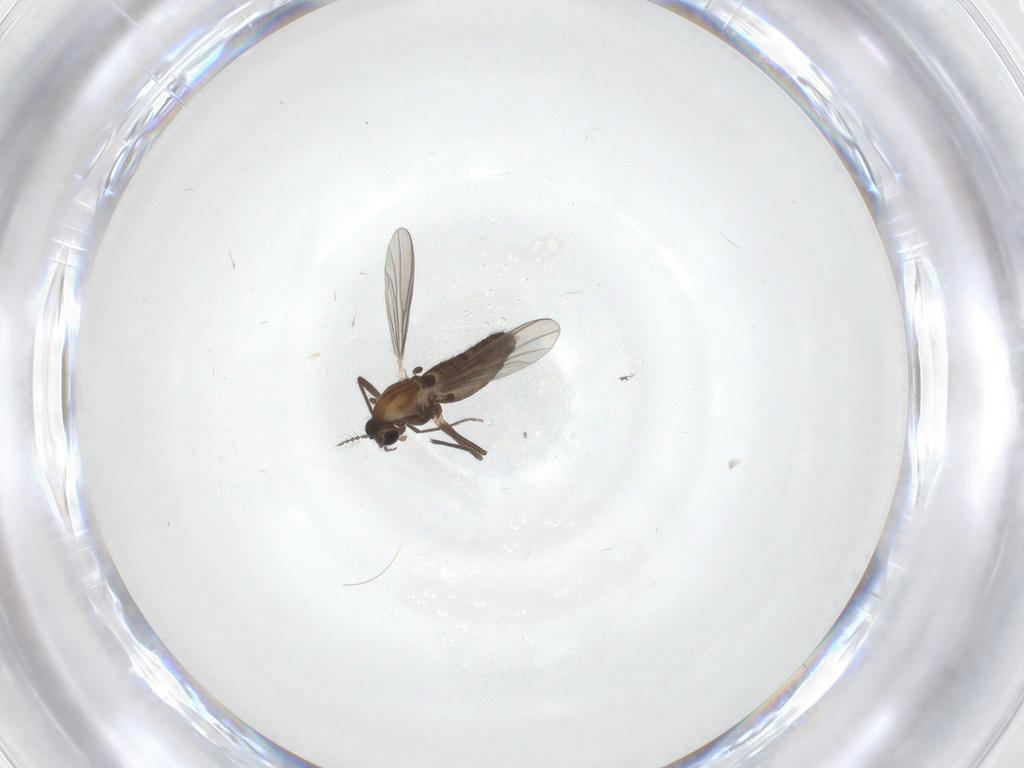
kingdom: Animalia
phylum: Arthropoda
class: Insecta
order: Diptera
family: Chironomidae
